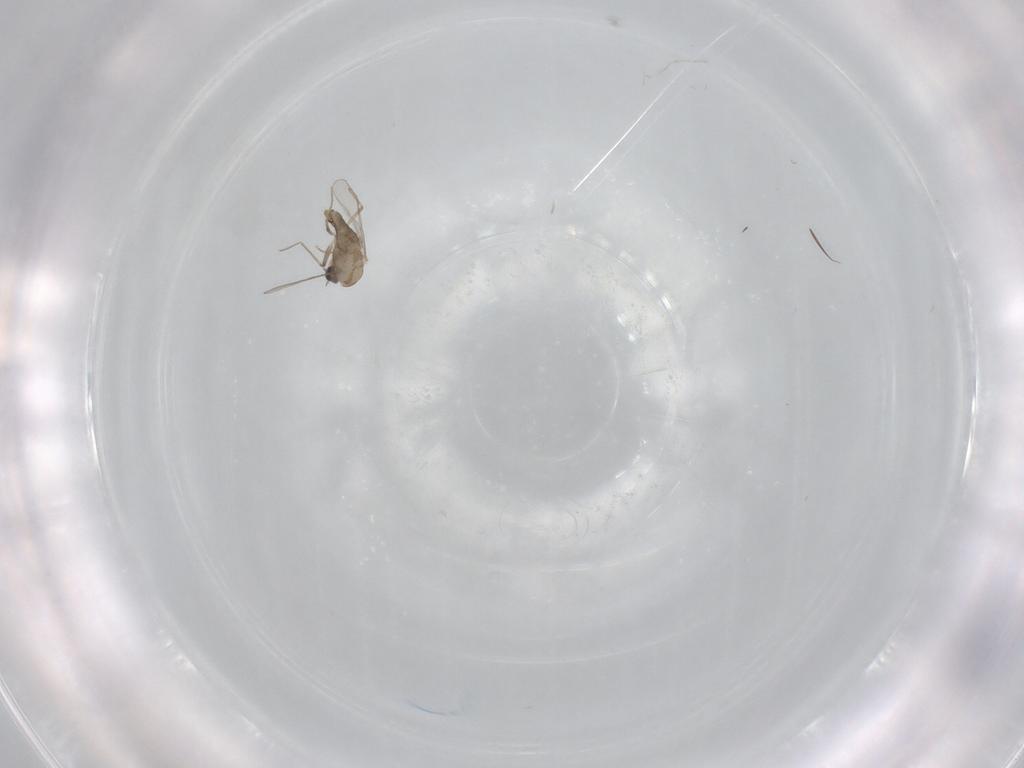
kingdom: Animalia
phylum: Arthropoda
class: Insecta
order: Diptera
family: Chironomidae
